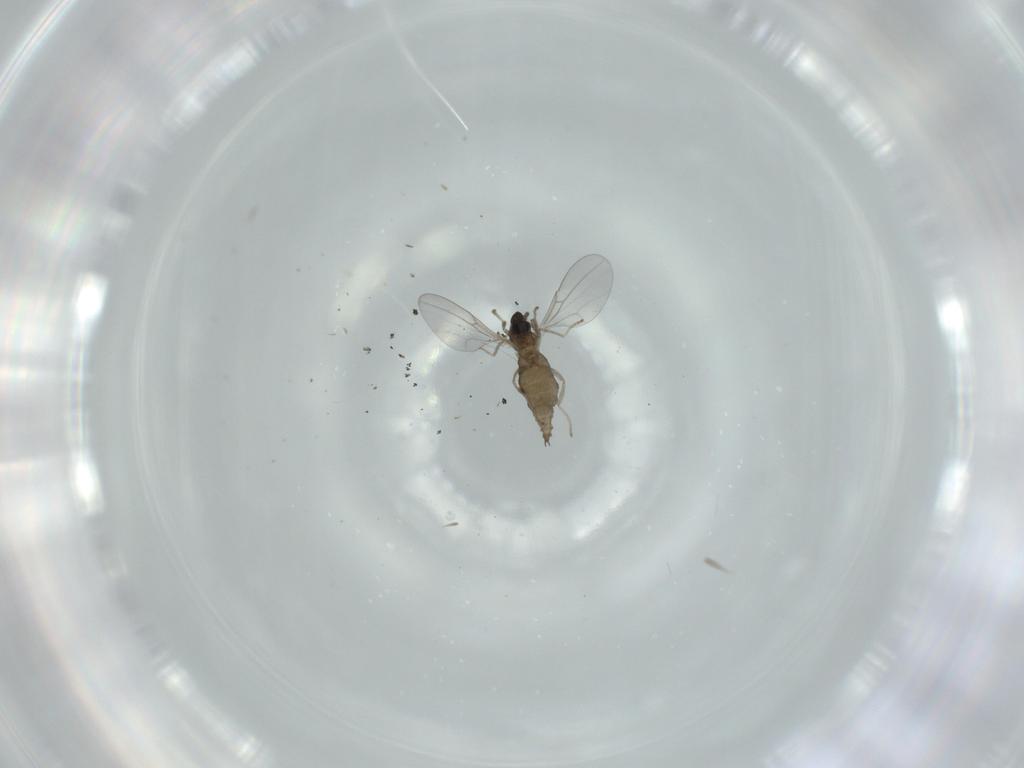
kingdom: Animalia
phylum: Arthropoda
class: Insecta
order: Diptera
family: Cecidomyiidae
